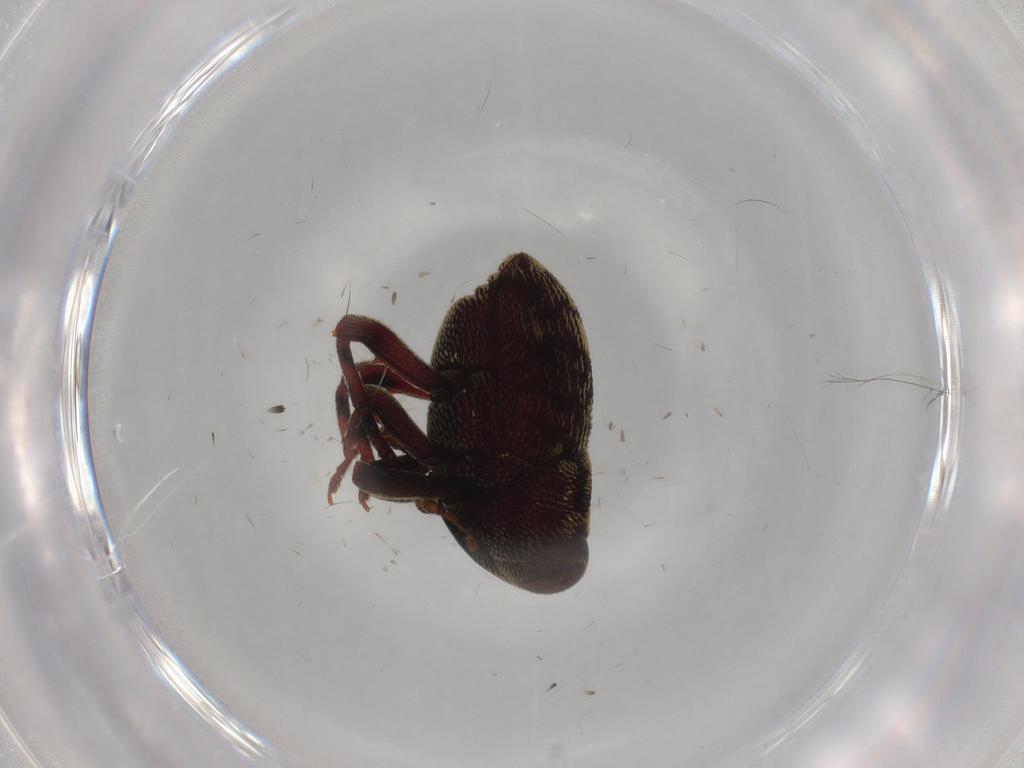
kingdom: Animalia
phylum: Arthropoda
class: Insecta
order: Coleoptera
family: Curculionidae
